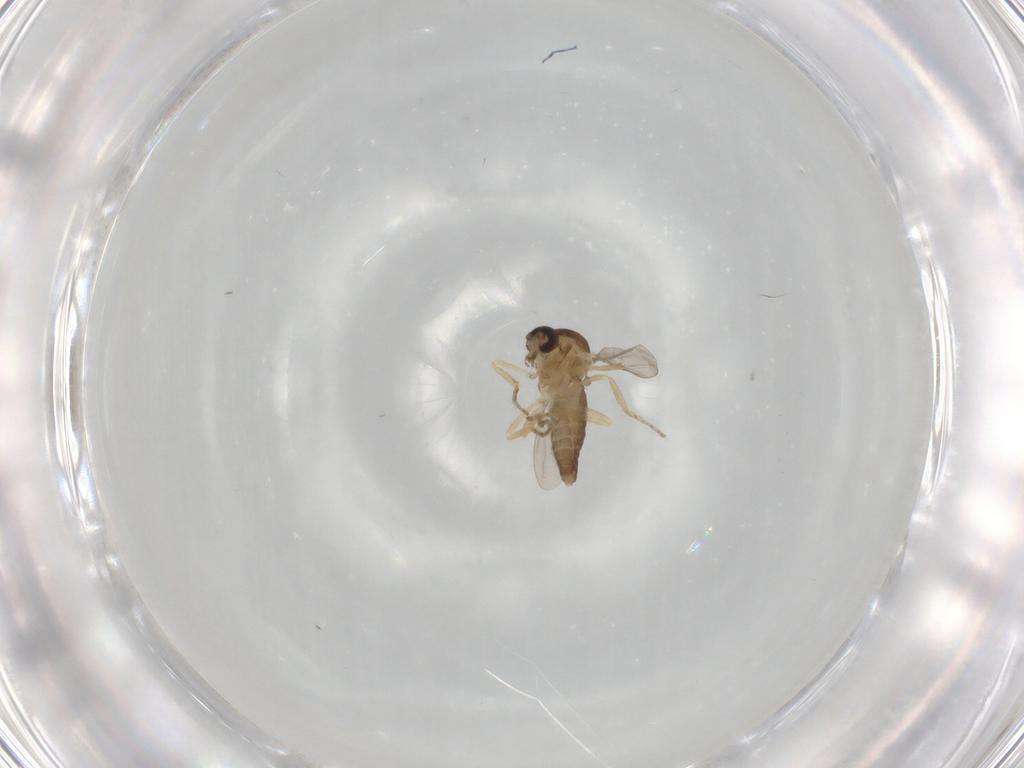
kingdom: Animalia
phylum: Arthropoda
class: Insecta
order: Diptera
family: Ceratopogonidae
